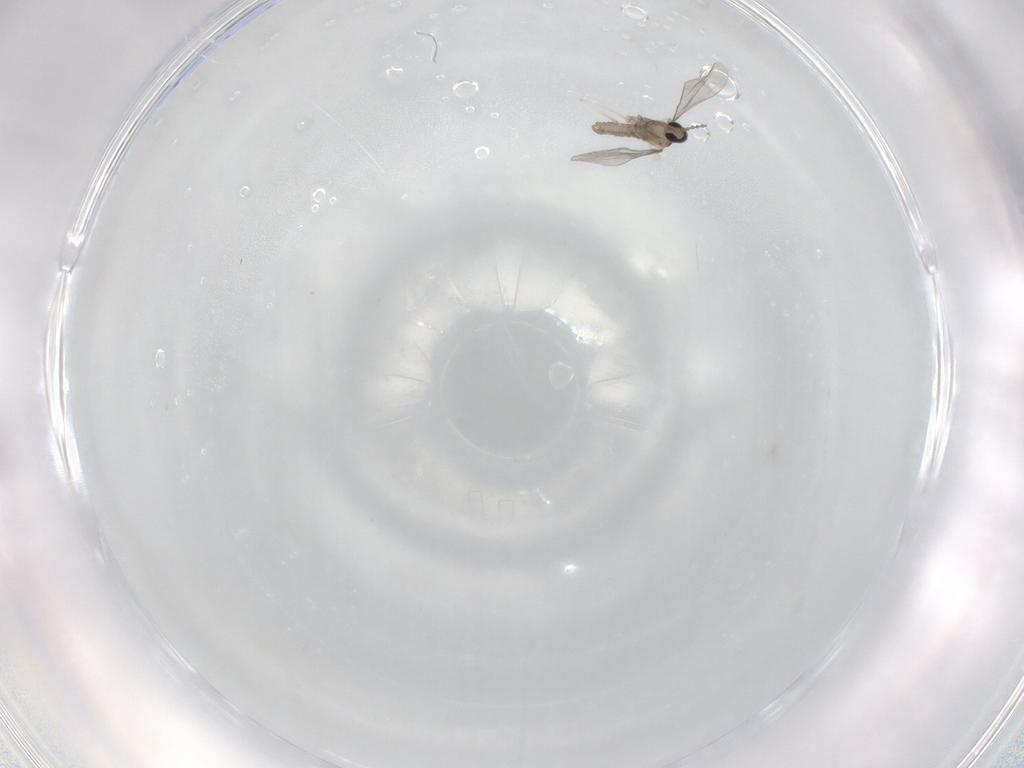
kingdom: Animalia
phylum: Arthropoda
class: Insecta
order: Diptera
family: Cecidomyiidae
